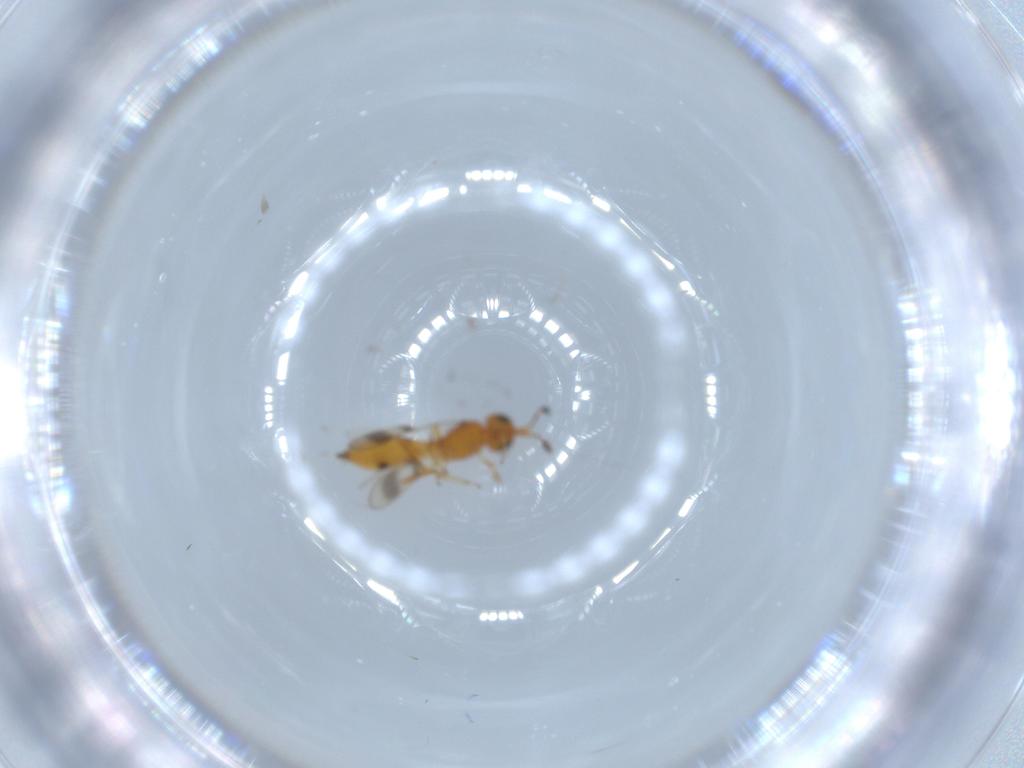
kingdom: Animalia
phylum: Arthropoda
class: Insecta
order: Hymenoptera
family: Scelionidae
